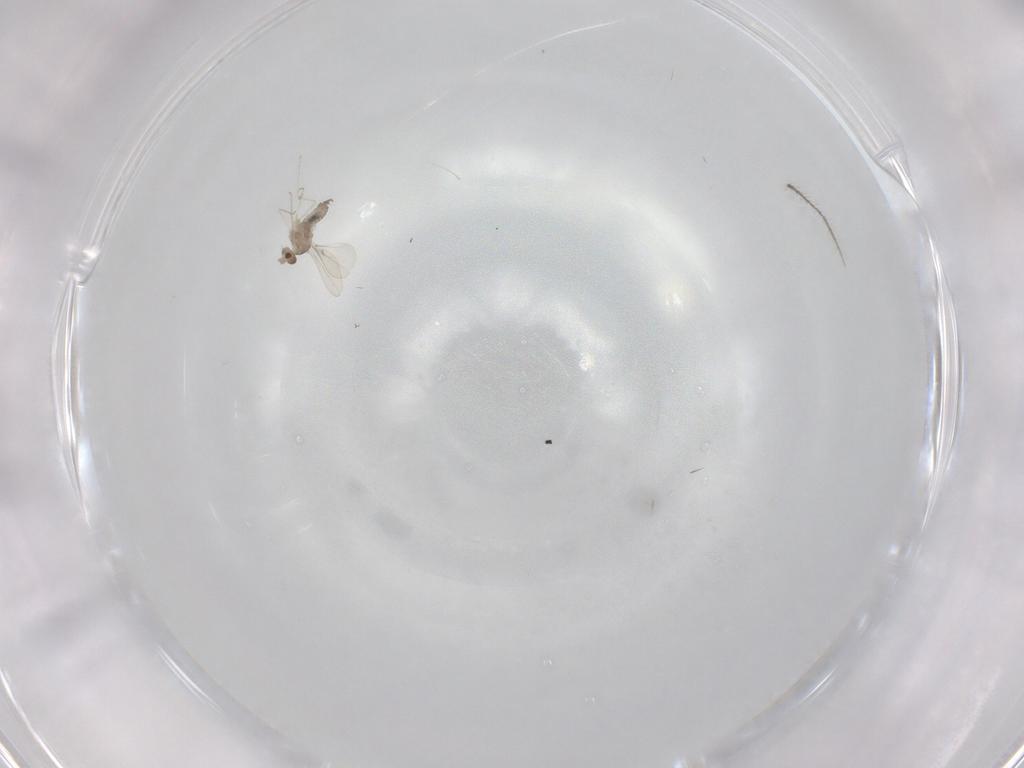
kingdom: Animalia
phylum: Arthropoda
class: Insecta
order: Diptera
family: Cecidomyiidae
